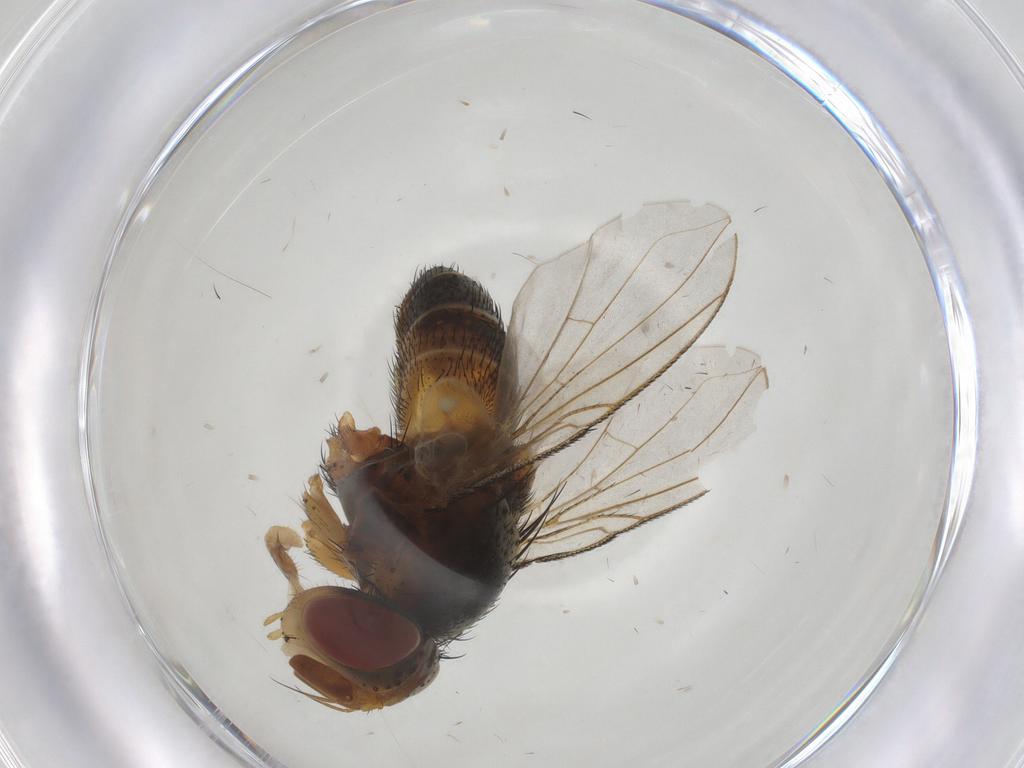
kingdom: Animalia
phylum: Arthropoda
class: Insecta
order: Diptera
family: Ceratopogonidae
